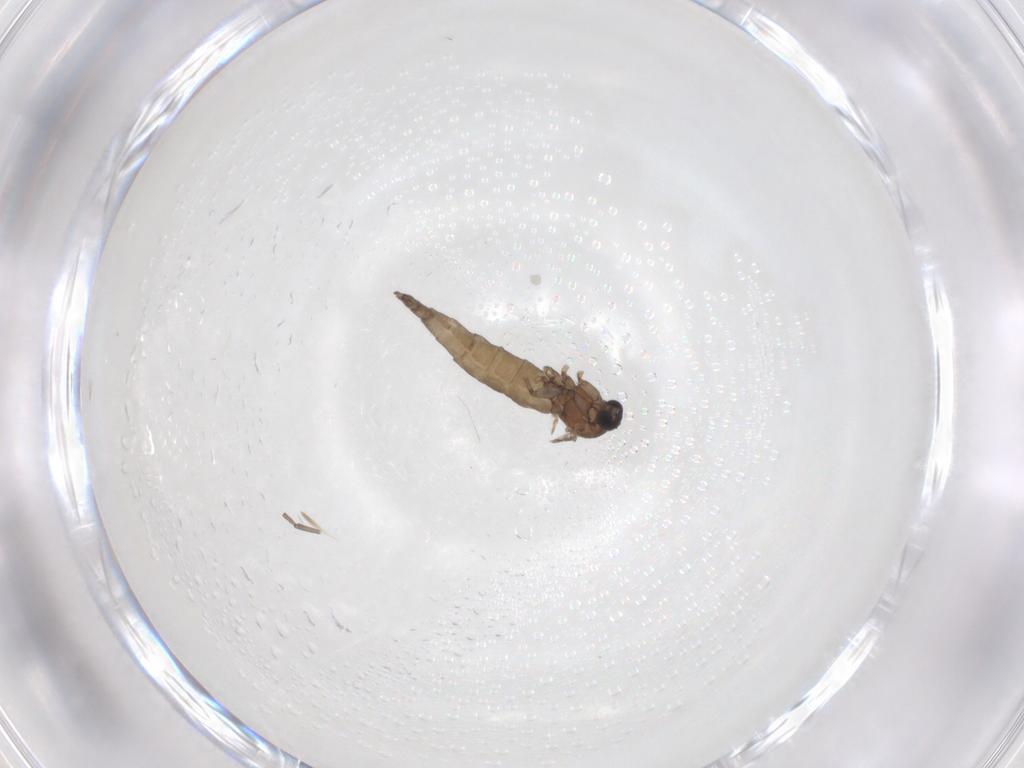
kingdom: Animalia
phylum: Arthropoda
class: Insecta
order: Diptera
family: Sciaridae
